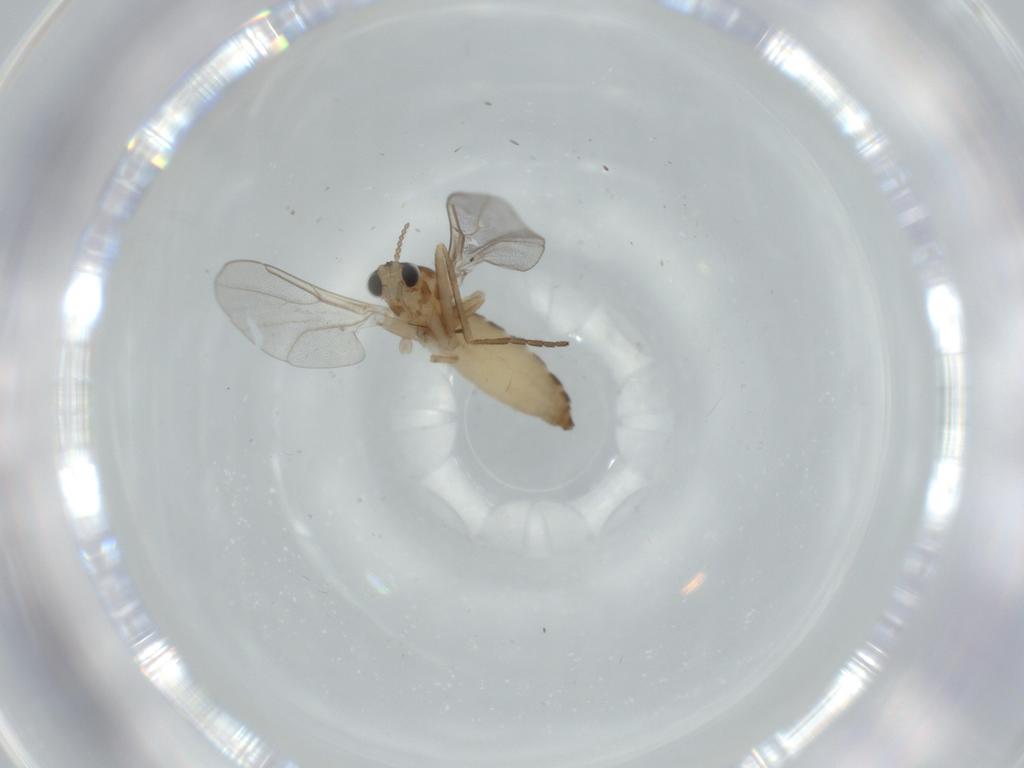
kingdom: Animalia
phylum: Arthropoda
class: Insecta
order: Diptera
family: Cecidomyiidae
